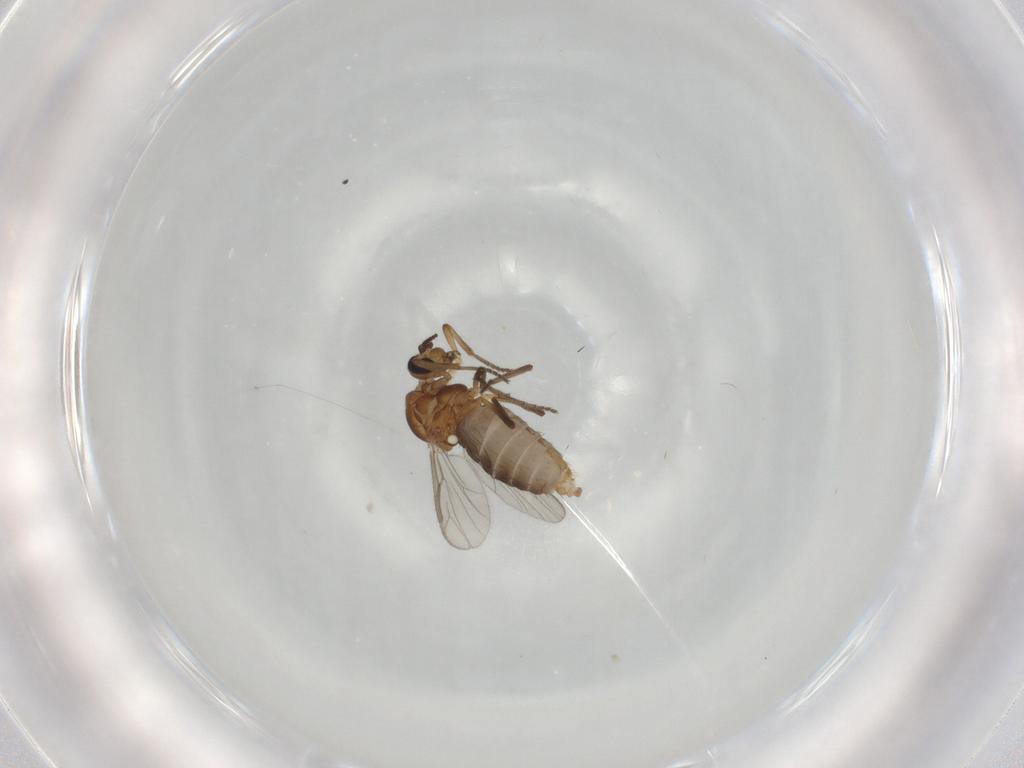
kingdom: Animalia
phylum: Arthropoda
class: Insecta
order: Diptera
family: Ceratopogonidae
